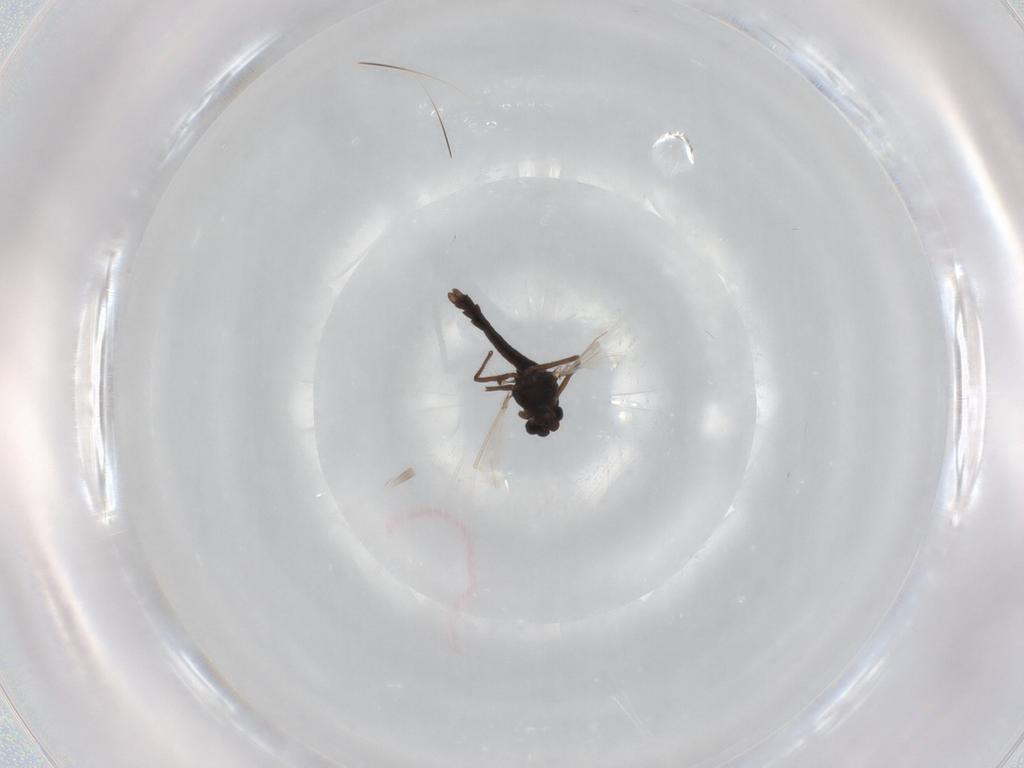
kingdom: Animalia
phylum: Arthropoda
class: Insecta
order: Diptera
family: Chironomidae
